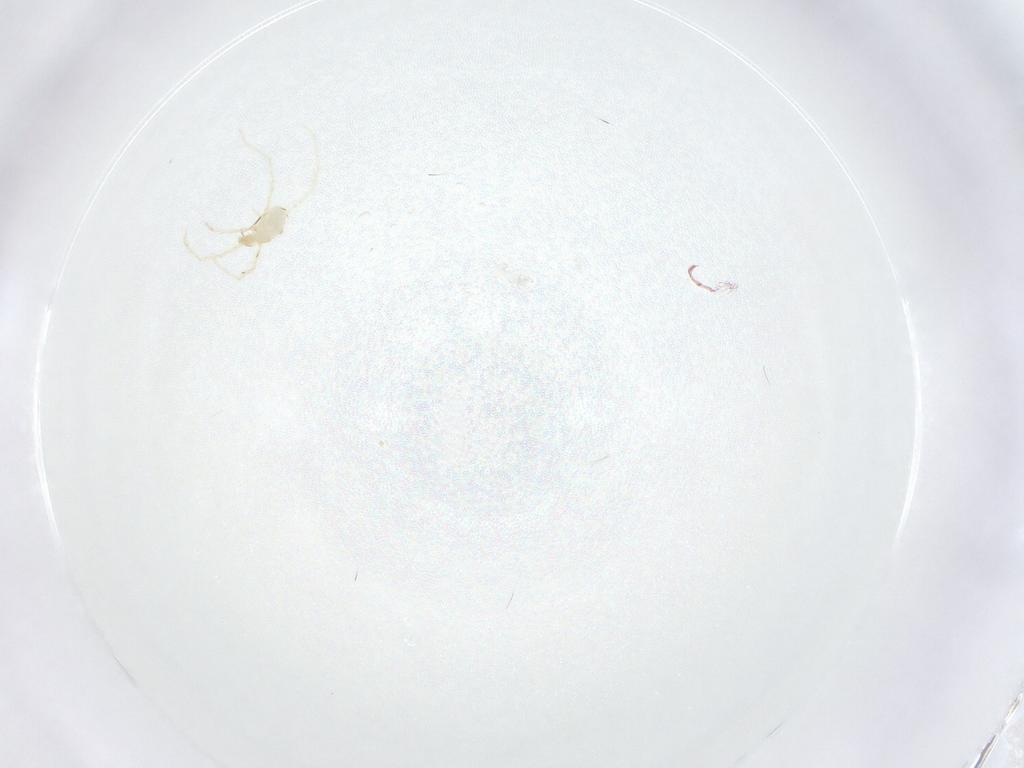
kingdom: Animalia
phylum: Arthropoda
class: Arachnida
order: Trombidiformes
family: Erythraeidae
